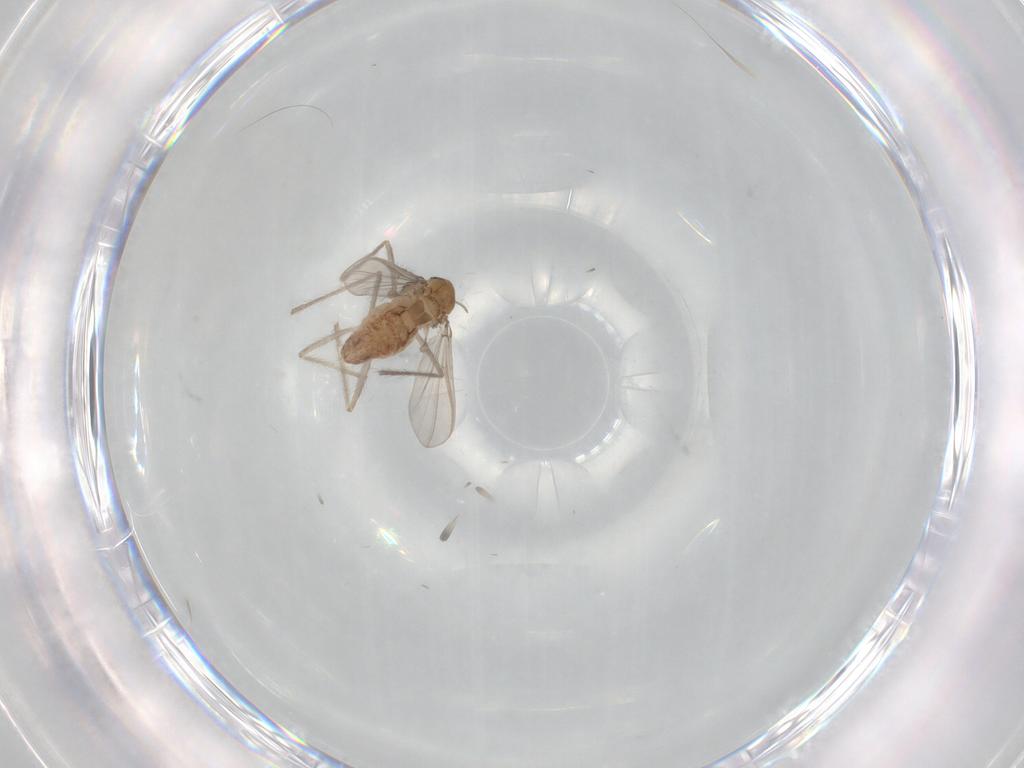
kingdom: Animalia
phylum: Arthropoda
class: Insecta
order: Diptera
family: Chironomidae
